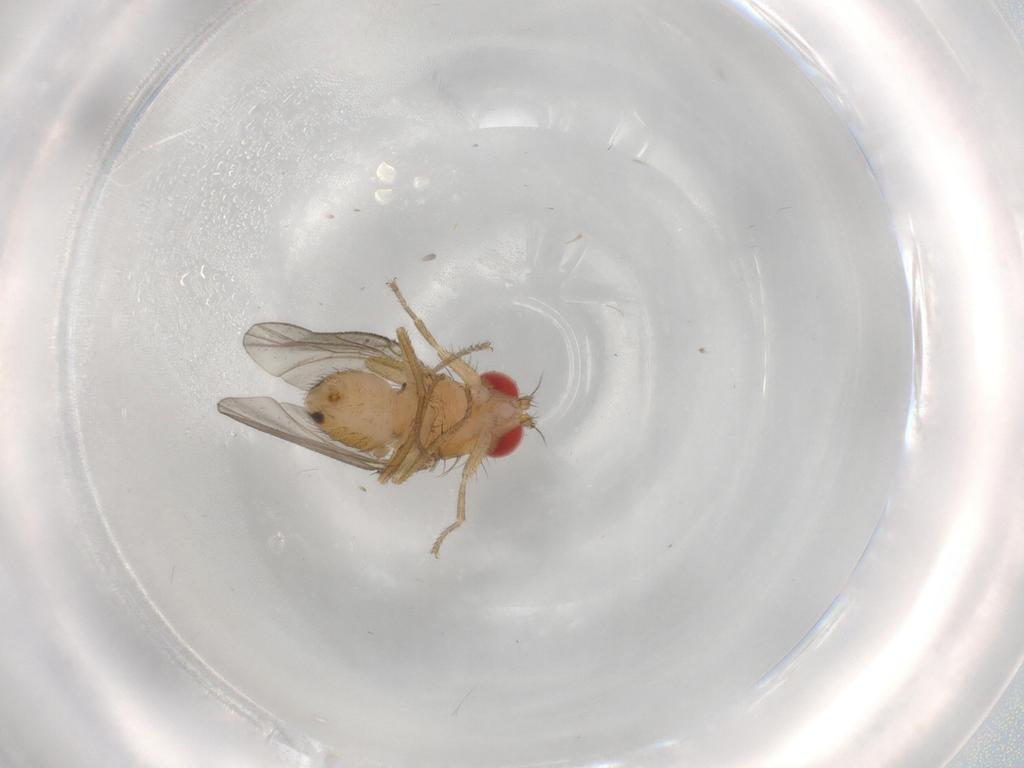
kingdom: Animalia
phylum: Arthropoda
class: Insecta
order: Diptera
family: Drosophilidae
